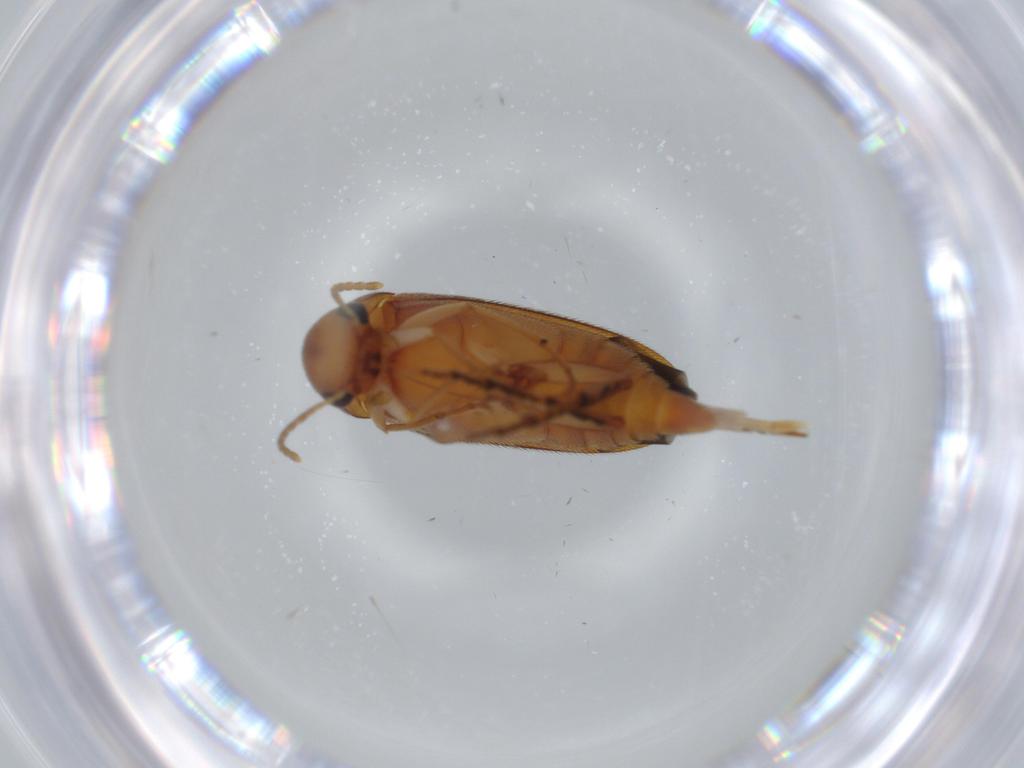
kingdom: Animalia
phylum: Arthropoda
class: Insecta
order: Coleoptera
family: Mordellidae
